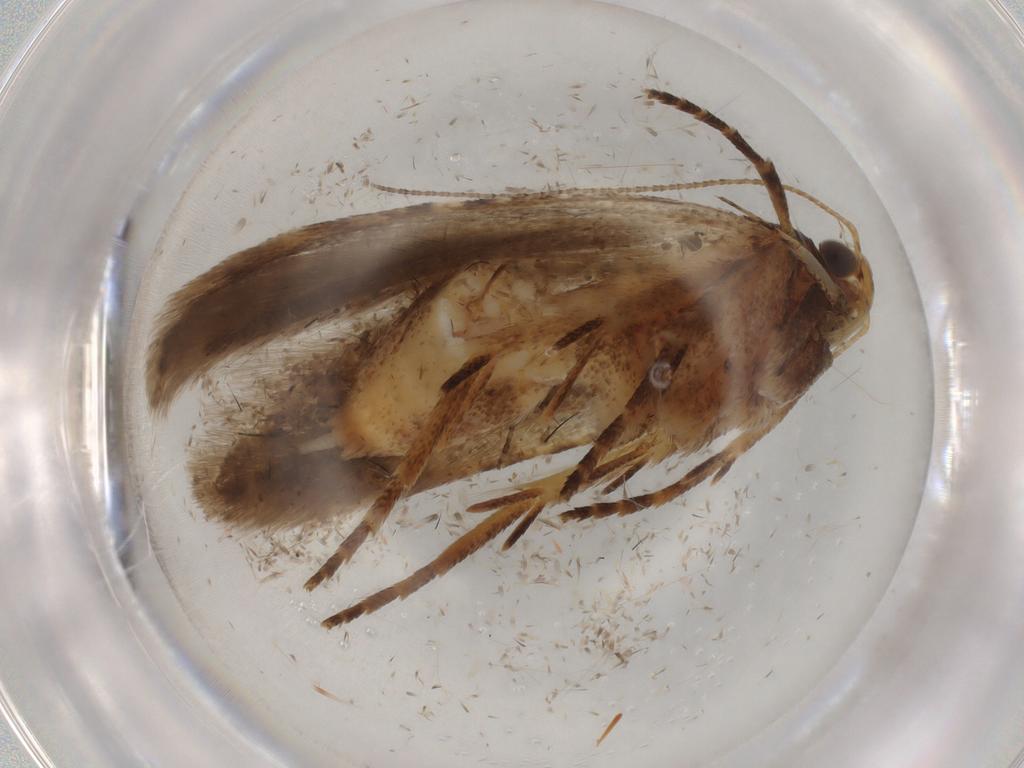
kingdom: Animalia
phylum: Arthropoda
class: Insecta
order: Lepidoptera
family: Gelechiidae
